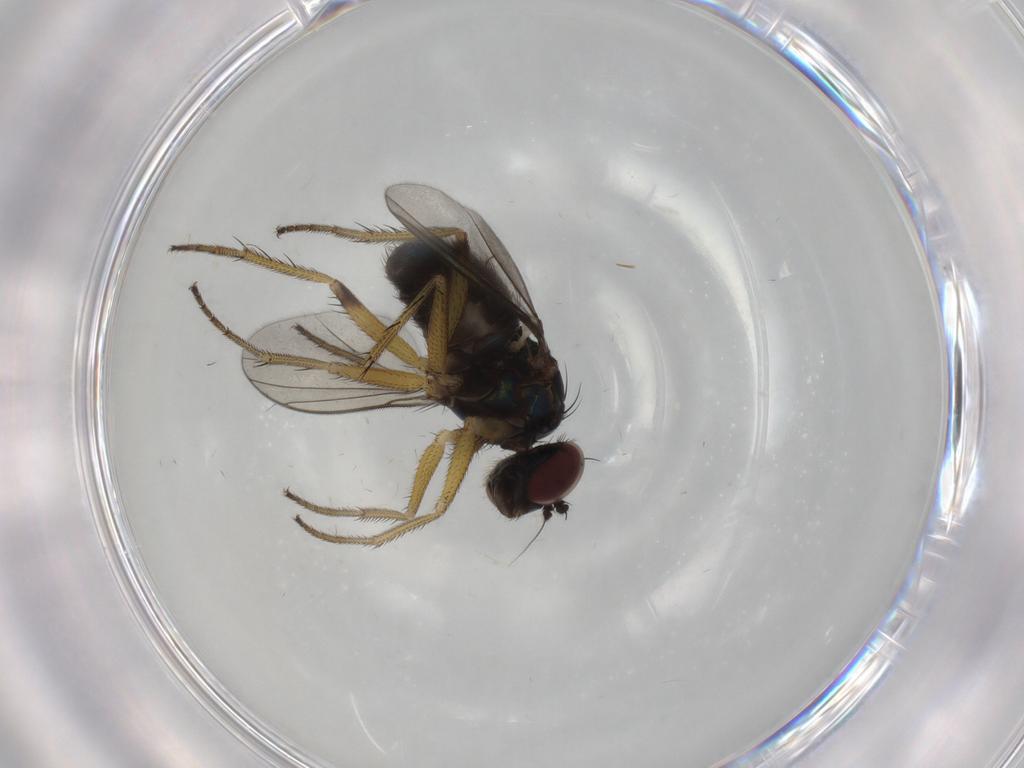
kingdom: Animalia
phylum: Arthropoda
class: Insecta
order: Diptera
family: Dolichopodidae
